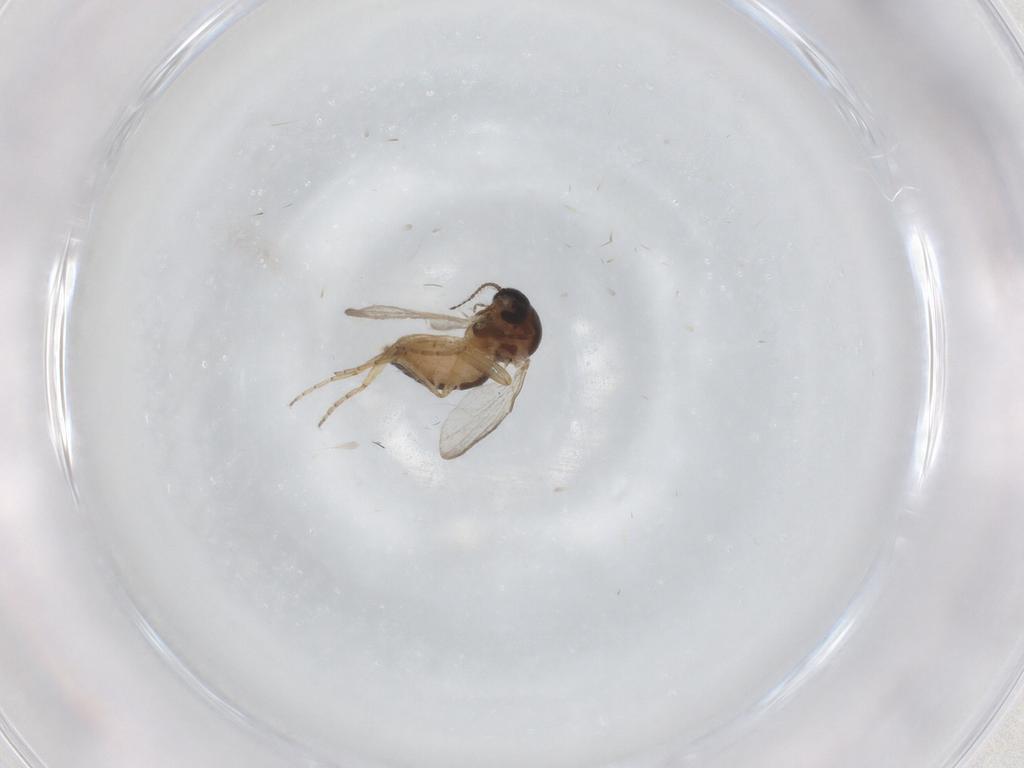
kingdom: Animalia
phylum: Arthropoda
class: Insecta
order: Diptera
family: Ceratopogonidae
